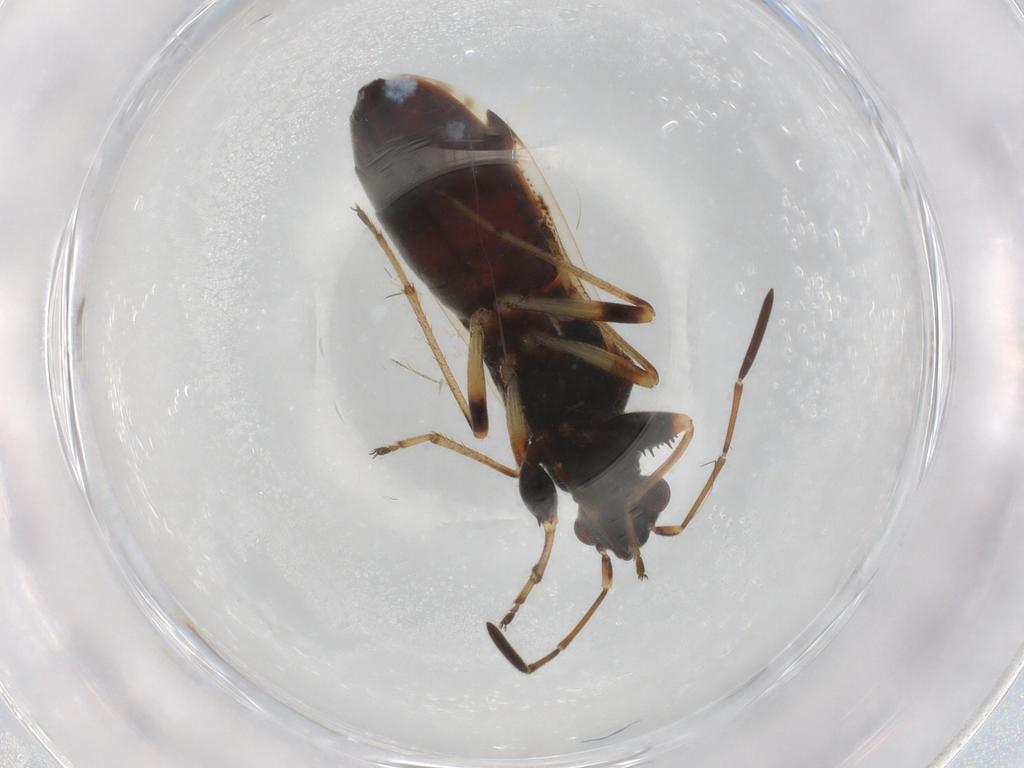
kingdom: Animalia
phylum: Arthropoda
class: Insecta
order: Hemiptera
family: Rhyparochromidae
